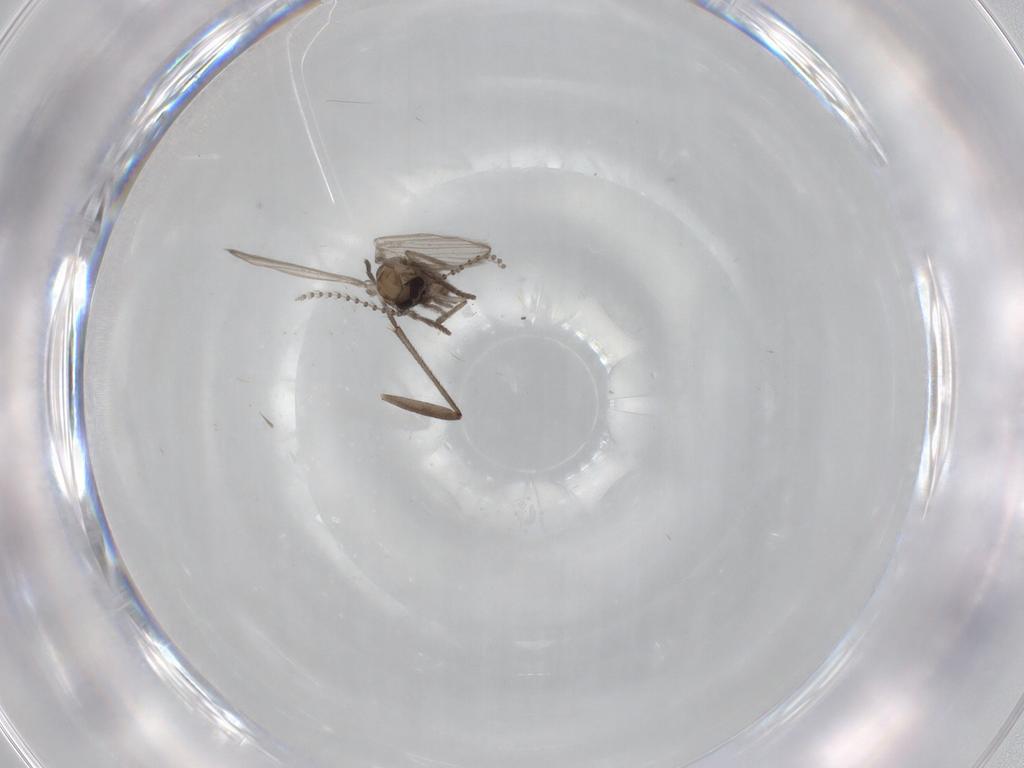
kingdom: Animalia
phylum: Arthropoda
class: Insecta
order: Diptera
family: Psychodidae
